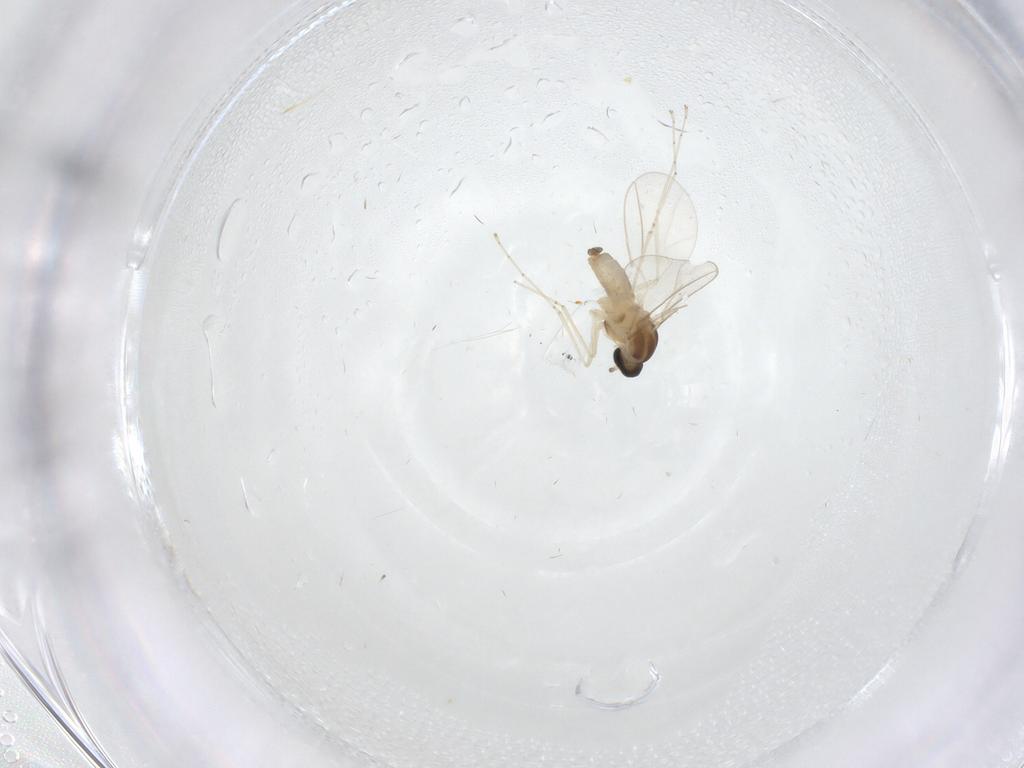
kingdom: Animalia
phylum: Arthropoda
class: Insecta
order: Diptera
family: Cecidomyiidae
